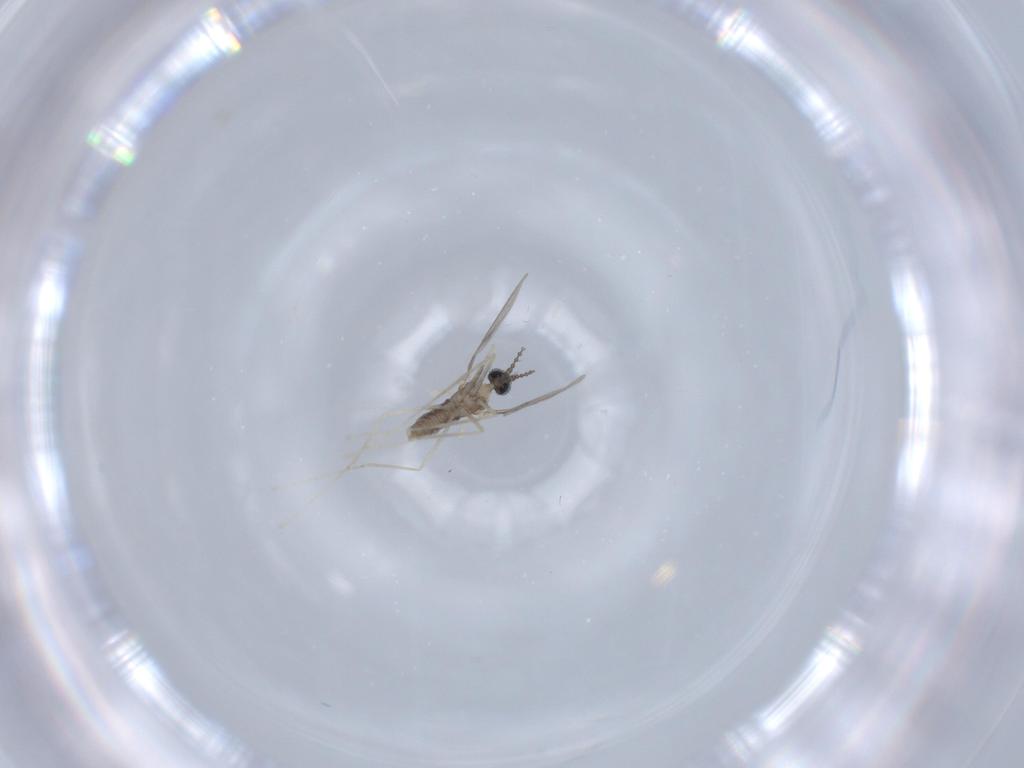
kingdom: Animalia
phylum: Arthropoda
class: Insecta
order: Diptera
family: Cecidomyiidae
